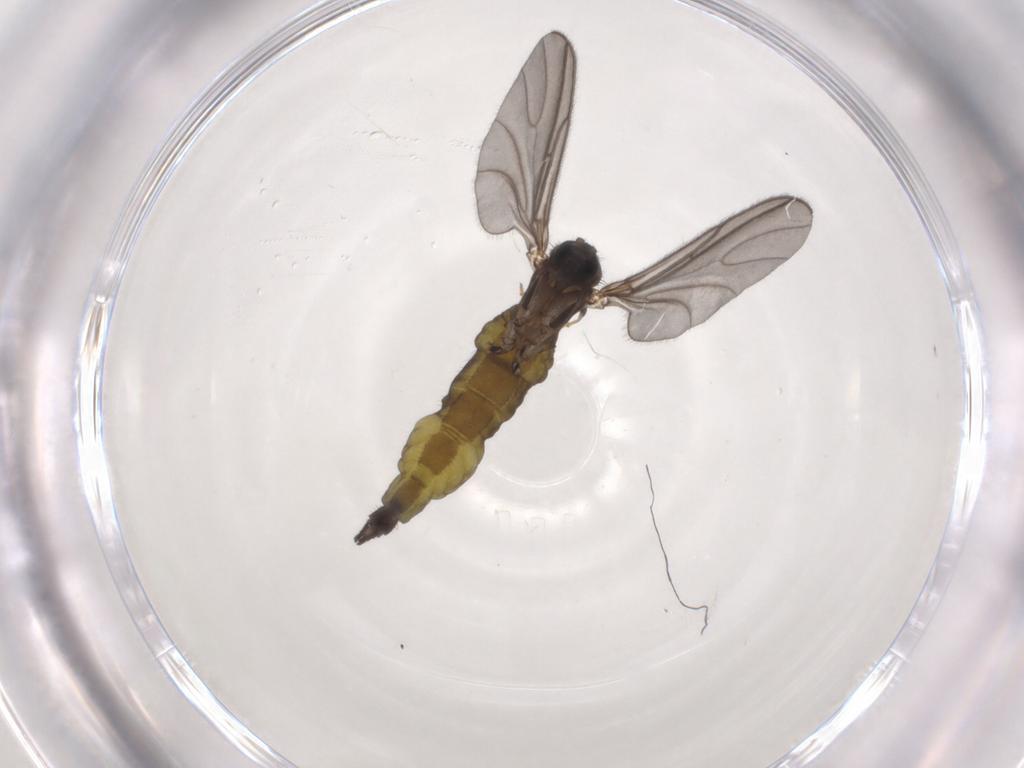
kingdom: Animalia
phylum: Arthropoda
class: Insecta
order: Diptera
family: Sciaridae
